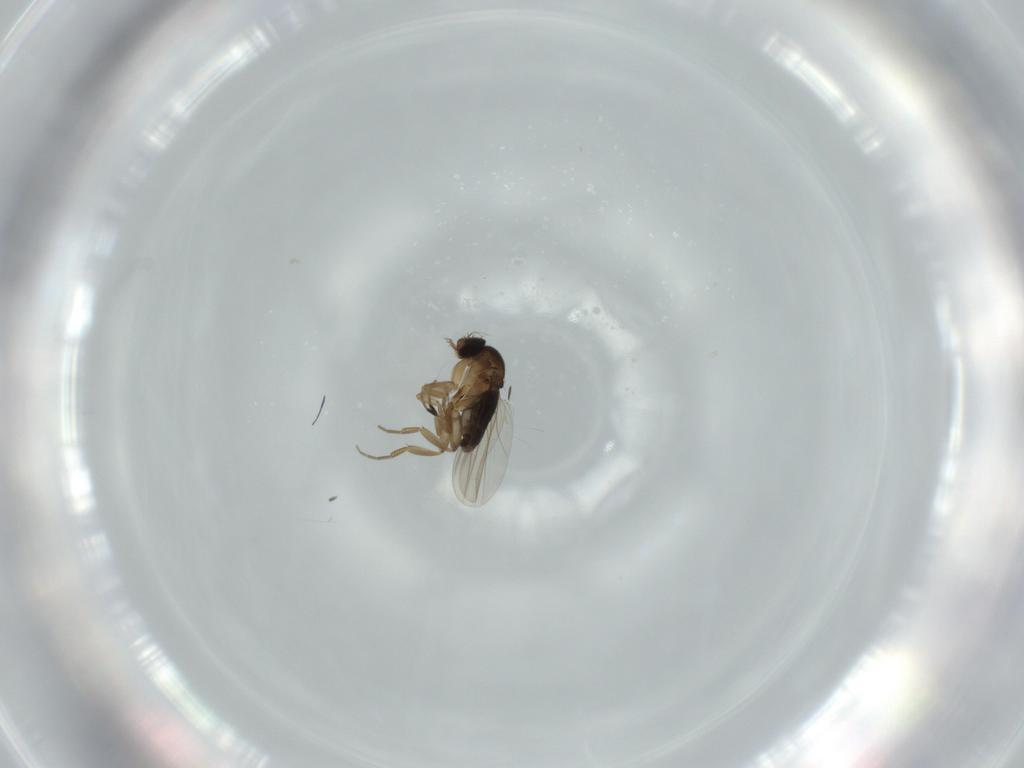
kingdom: Animalia
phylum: Arthropoda
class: Insecta
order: Diptera
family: Phoridae
